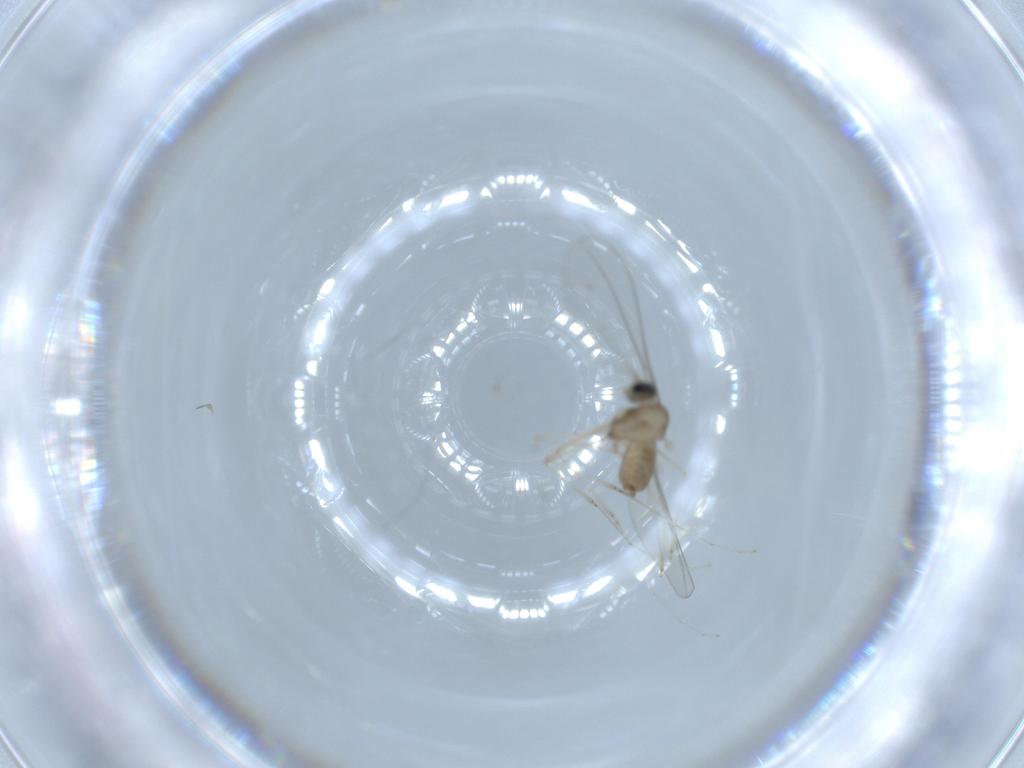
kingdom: Animalia
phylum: Arthropoda
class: Insecta
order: Diptera
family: Cecidomyiidae
